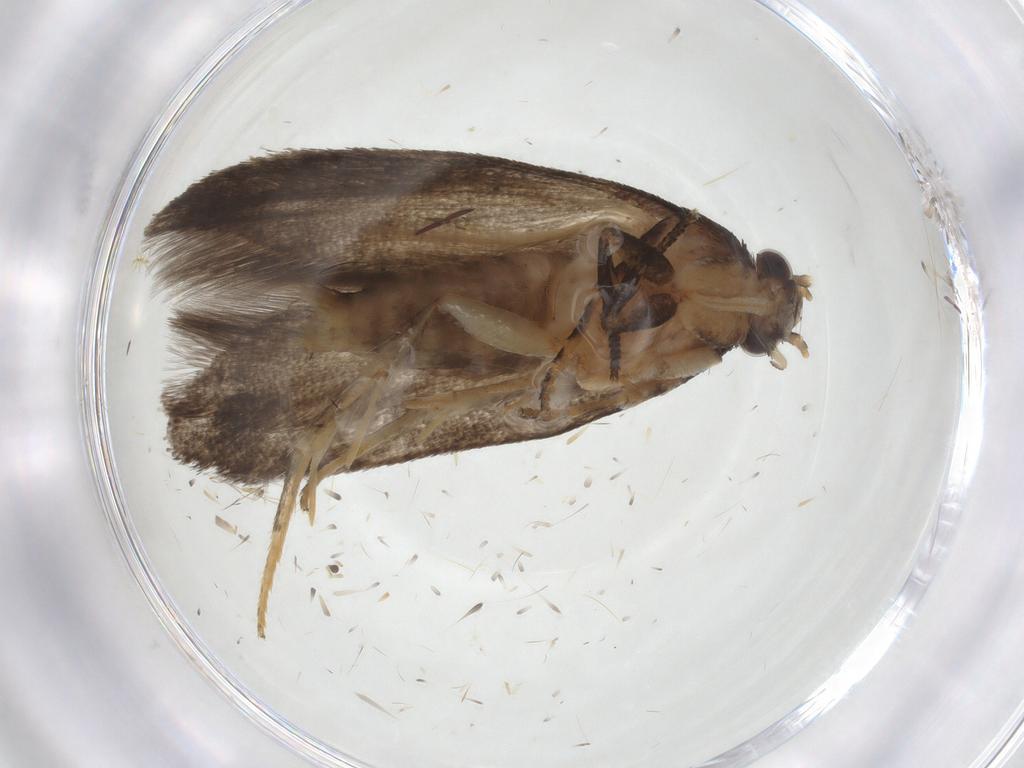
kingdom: Animalia
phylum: Arthropoda
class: Insecta
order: Lepidoptera
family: Oecophoridae
